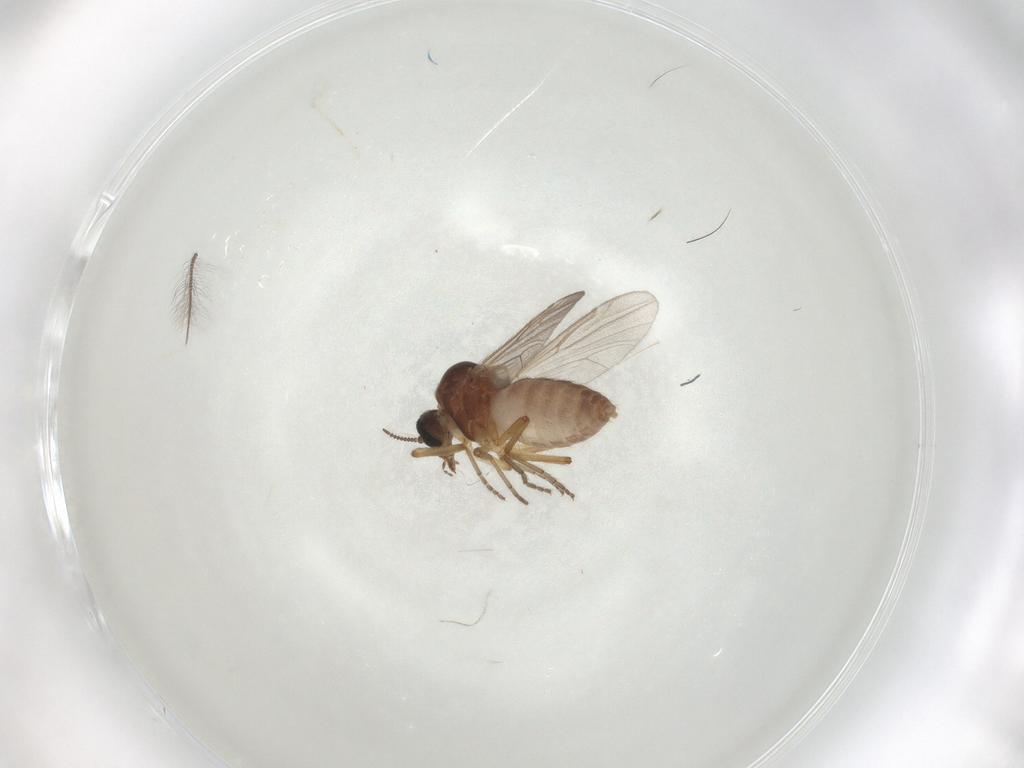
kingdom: Animalia
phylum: Arthropoda
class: Insecta
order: Diptera
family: Ceratopogonidae
